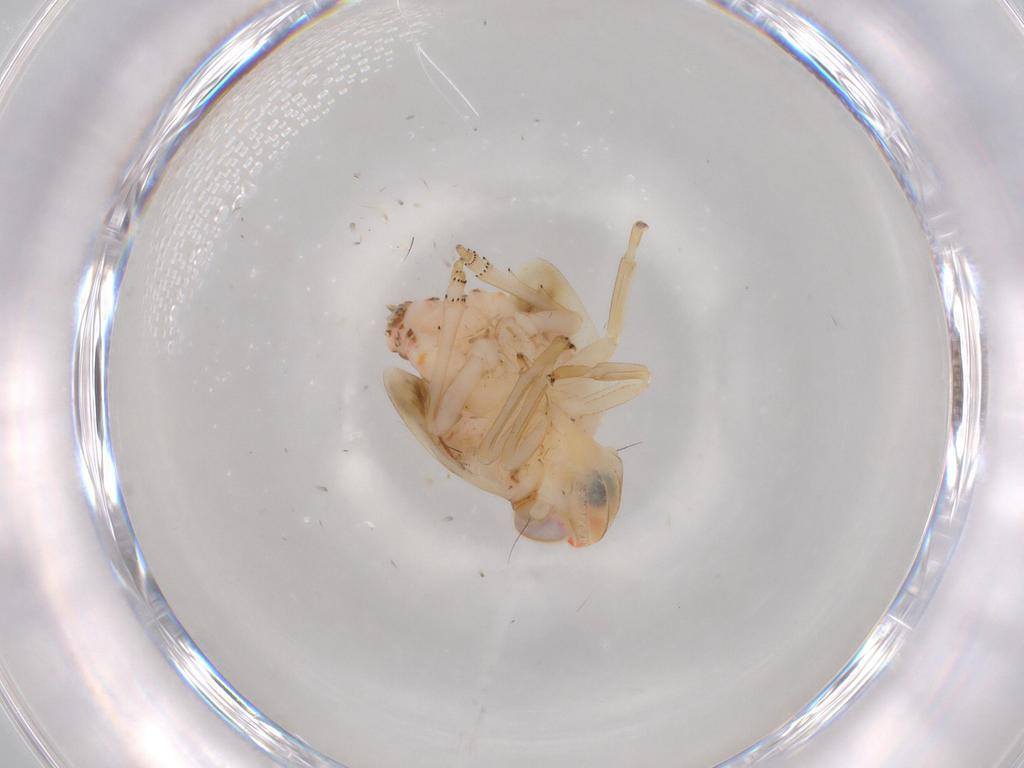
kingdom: Animalia
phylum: Arthropoda
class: Insecta
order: Hemiptera
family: Nogodinidae
